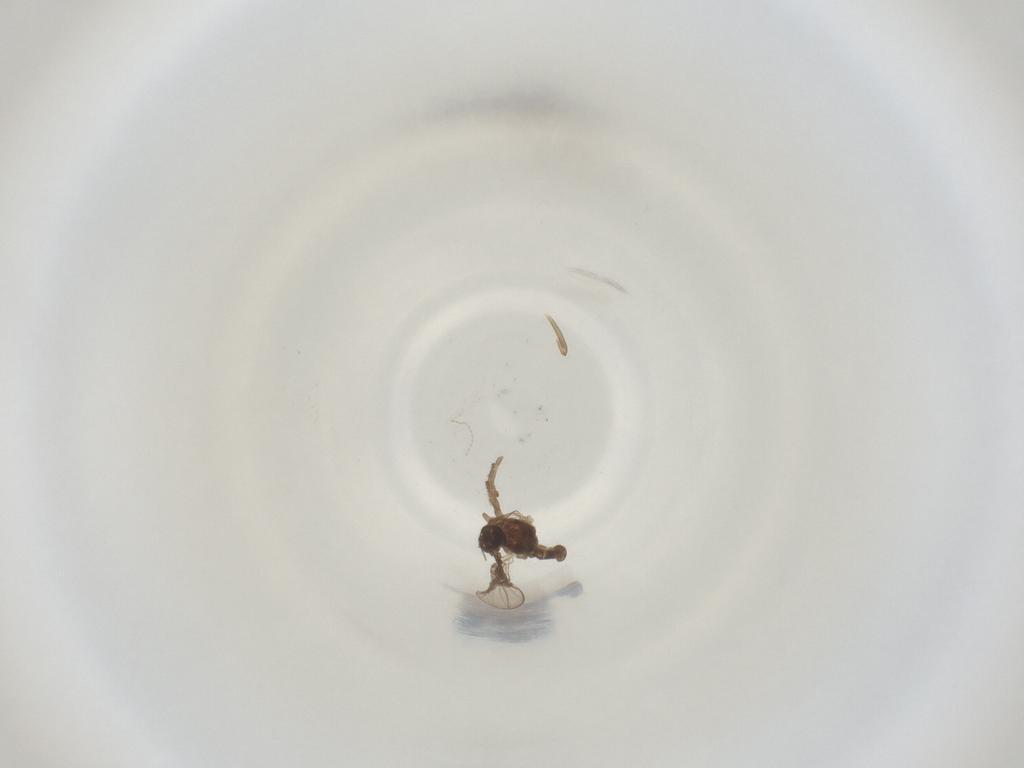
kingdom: Animalia
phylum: Arthropoda
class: Insecta
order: Diptera
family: Cecidomyiidae
